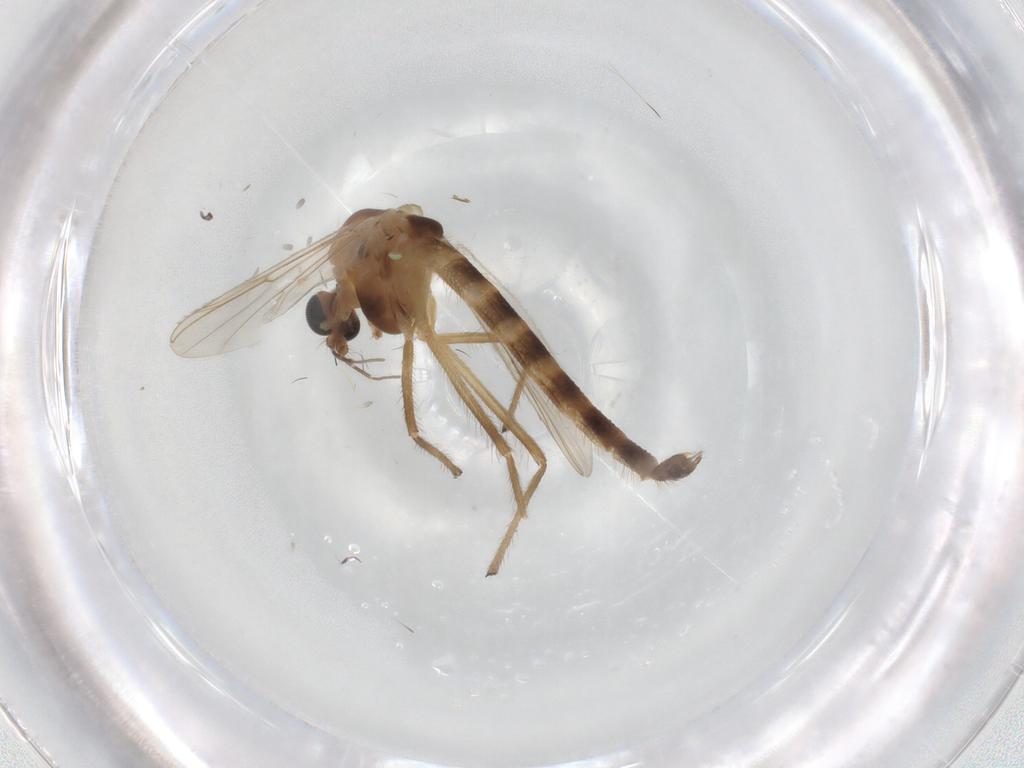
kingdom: Animalia
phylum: Arthropoda
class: Insecta
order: Diptera
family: Chironomidae
